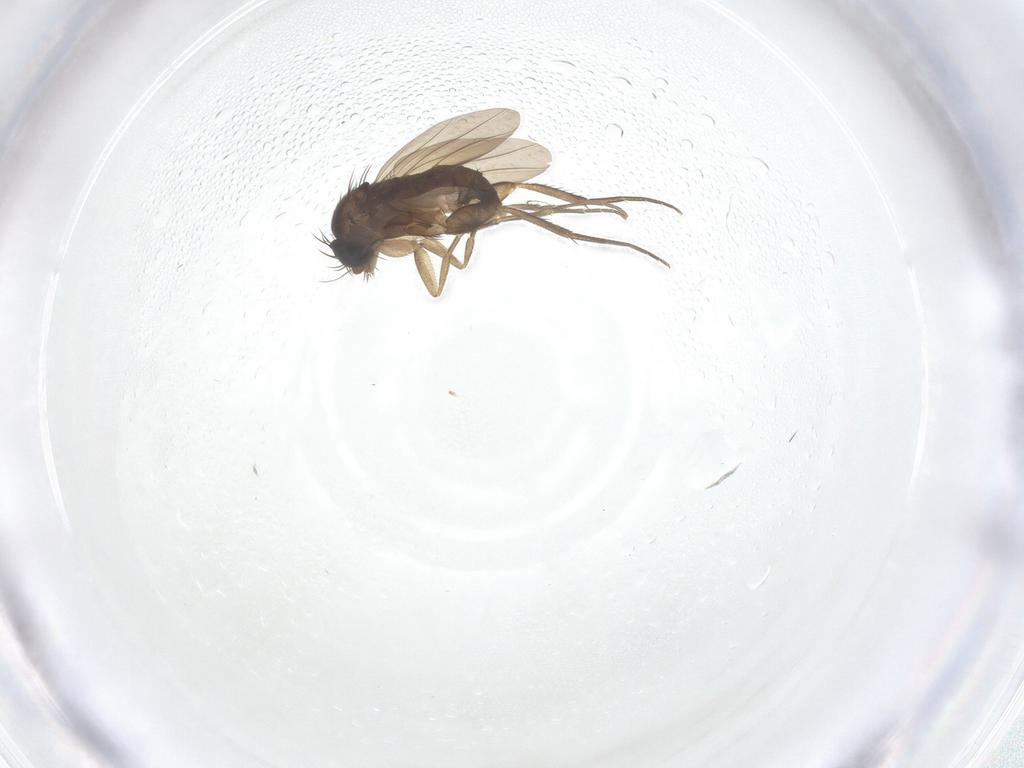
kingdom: Animalia
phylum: Arthropoda
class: Insecta
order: Diptera
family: Phoridae
